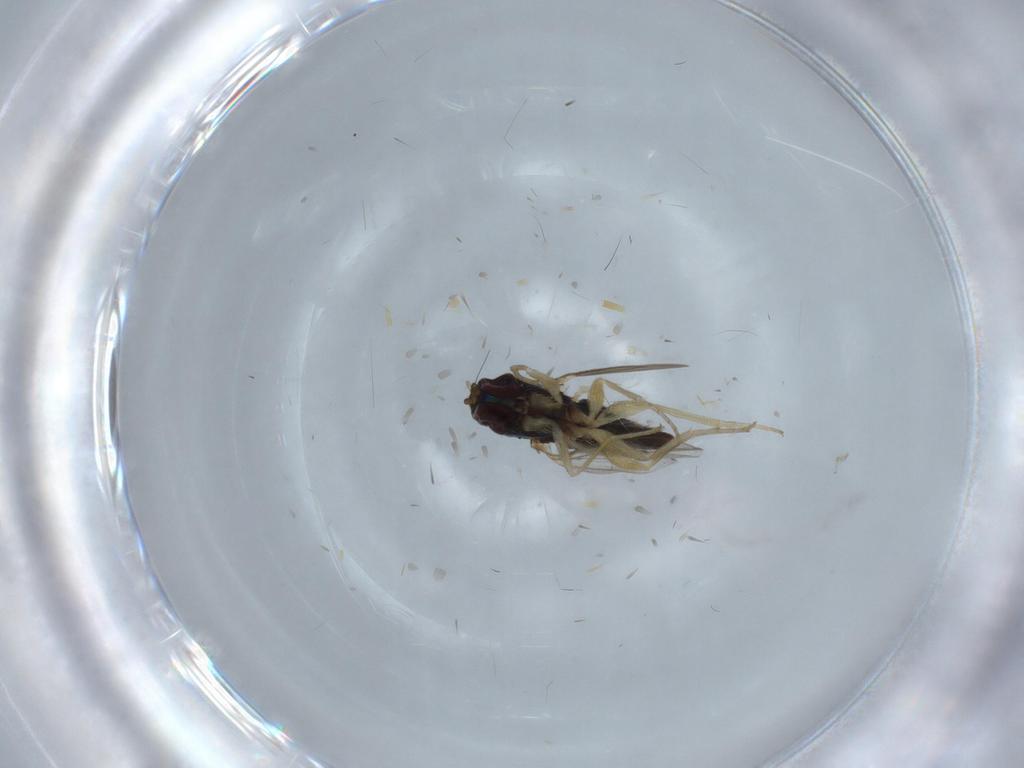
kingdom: Animalia
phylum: Arthropoda
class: Insecta
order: Diptera
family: Dolichopodidae
